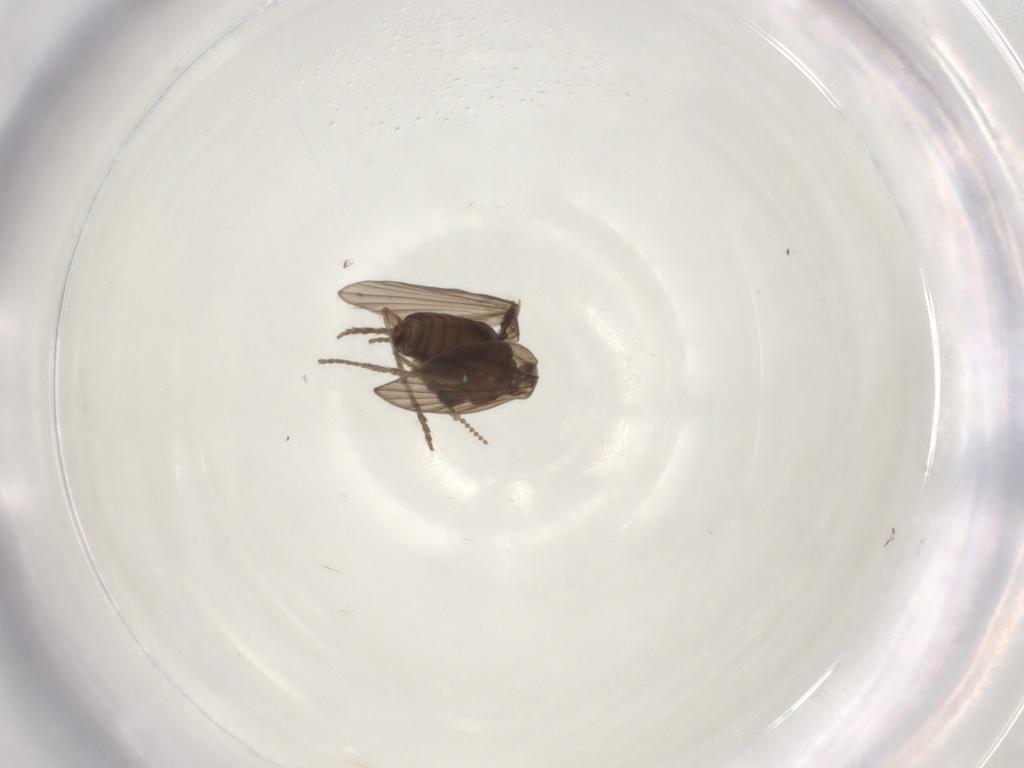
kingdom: Animalia
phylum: Arthropoda
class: Insecta
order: Diptera
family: Psychodidae
